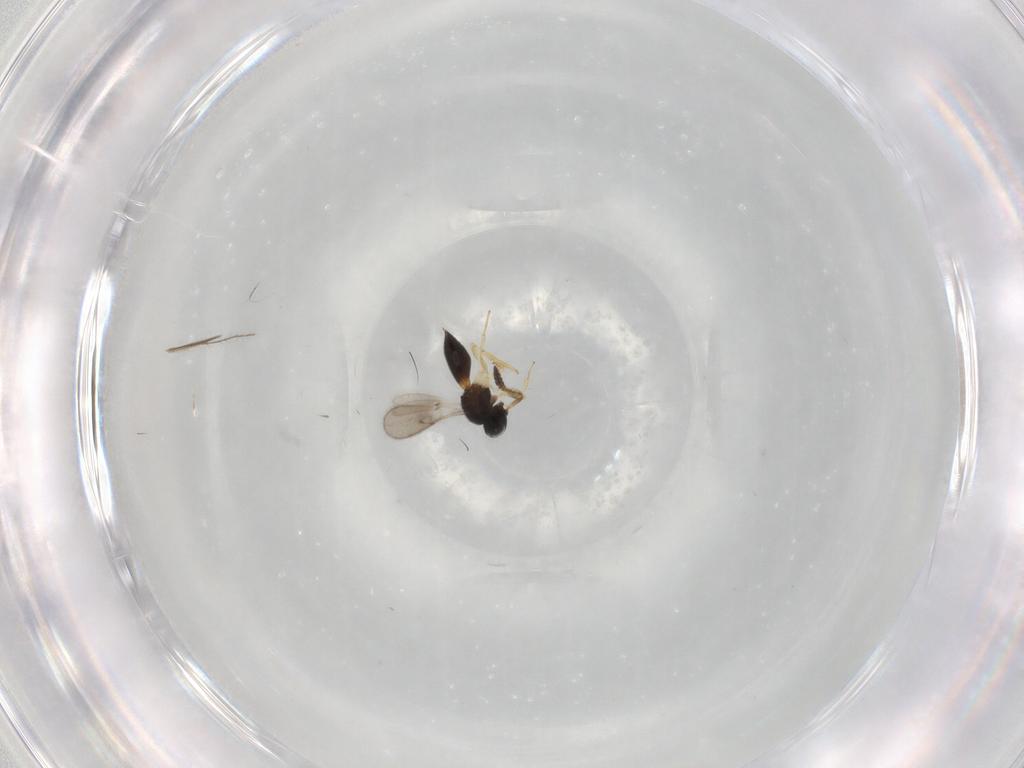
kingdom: Animalia
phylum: Arthropoda
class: Insecta
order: Hymenoptera
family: Scelionidae
